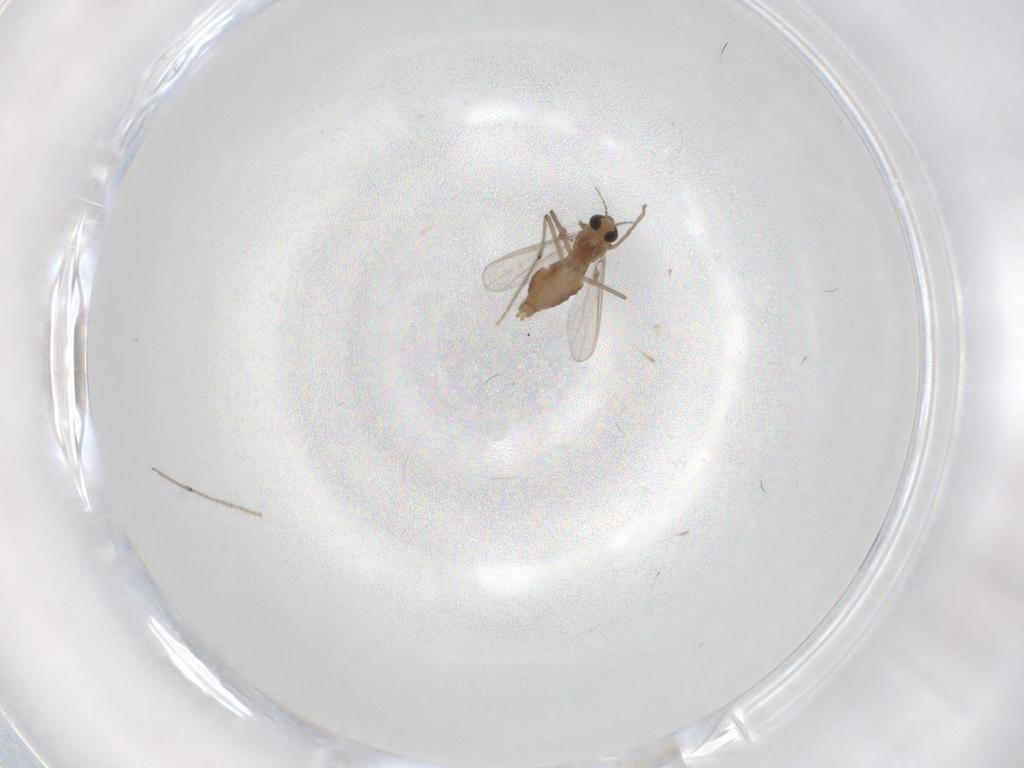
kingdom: Animalia
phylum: Arthropoda
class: Insecta
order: Diptera
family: Chironomidae
